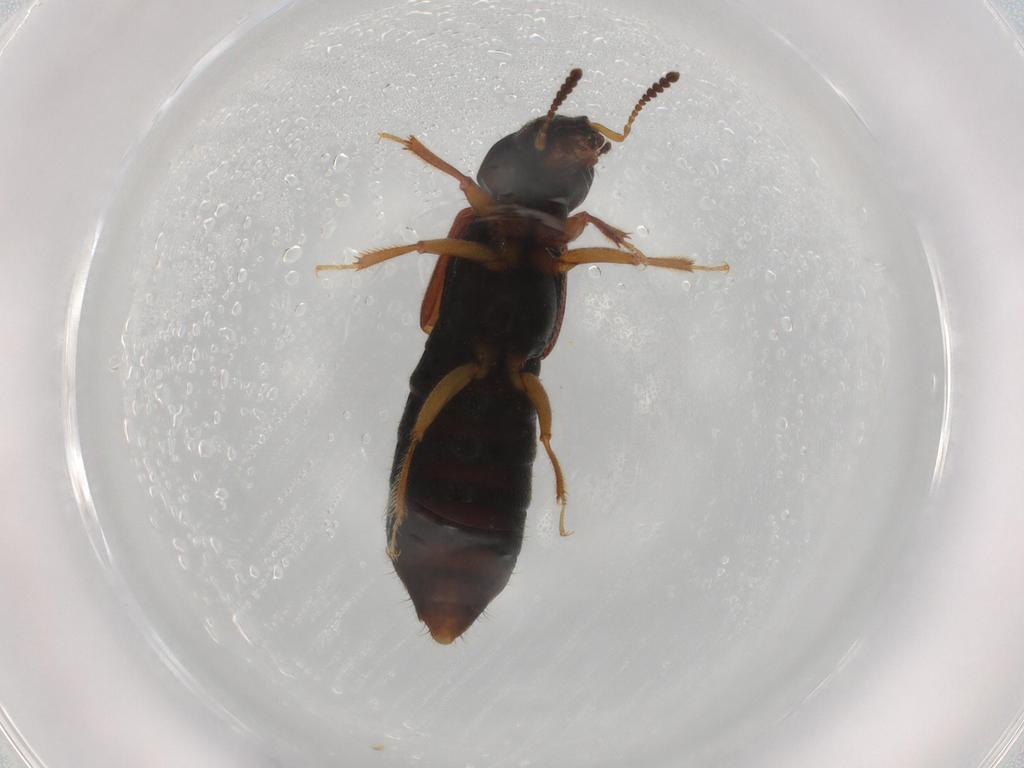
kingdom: Animalia
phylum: Arthropoda
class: Insecta
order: Coleoptera
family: Staphylinidae
